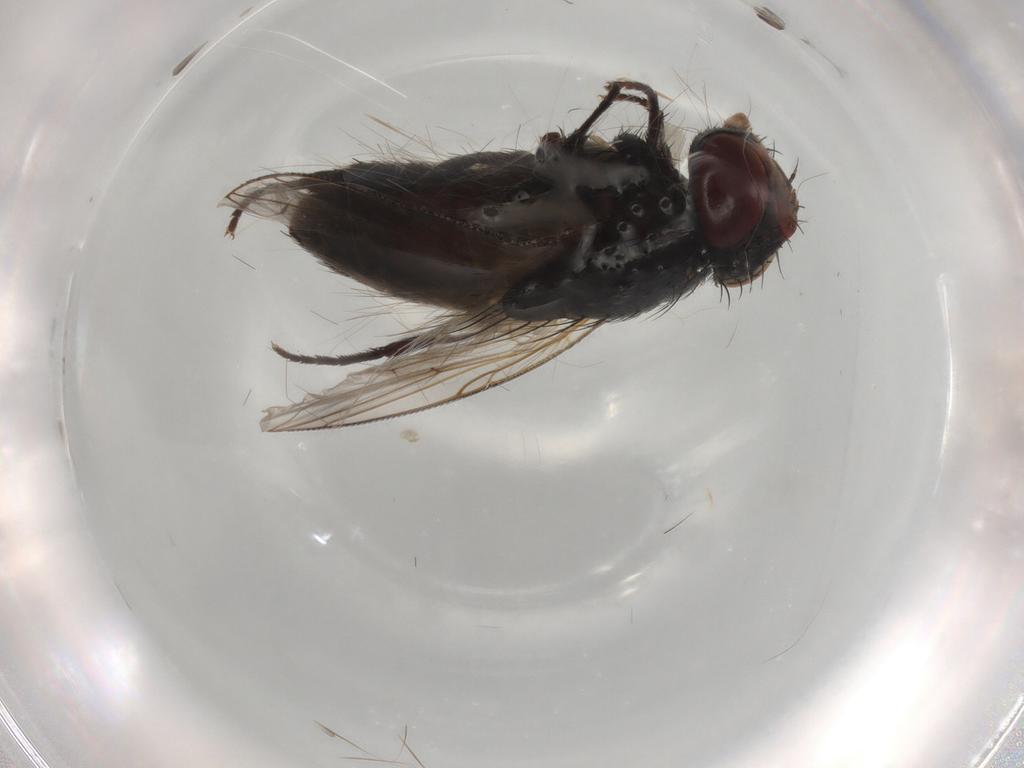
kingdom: Animalia
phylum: Arthropoda
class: Insecta
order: Diptera
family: Sarcophagidae
